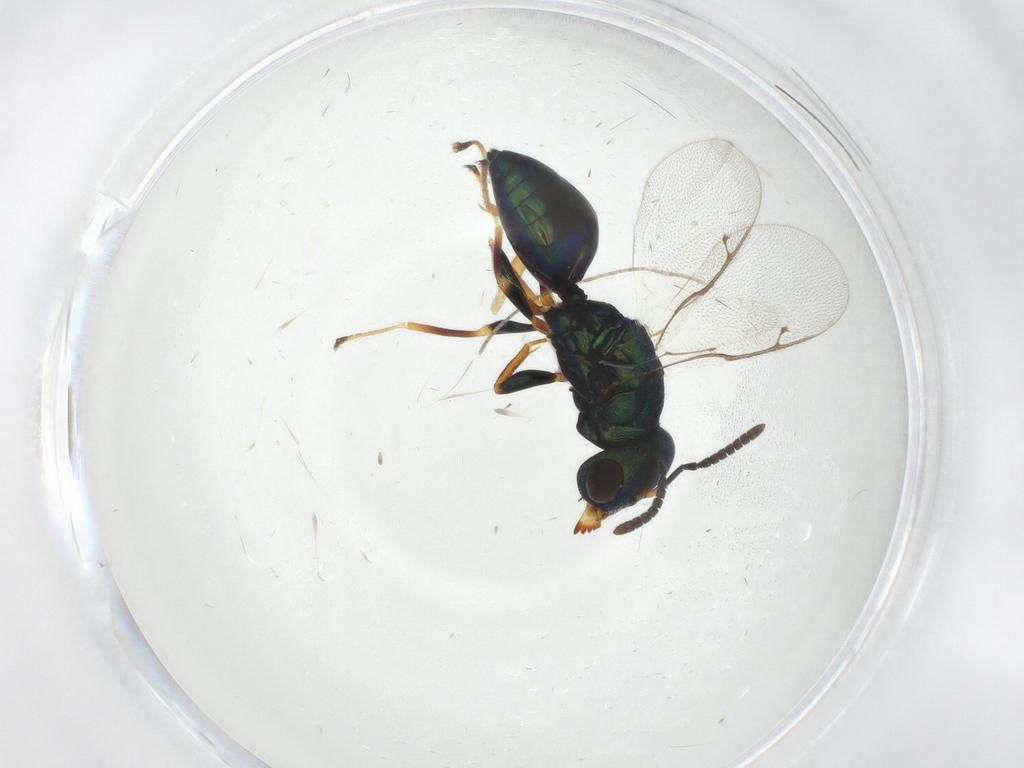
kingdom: Animalia
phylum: Arthropoda
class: Insecta
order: Hymenoptera
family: Pteromalidae
